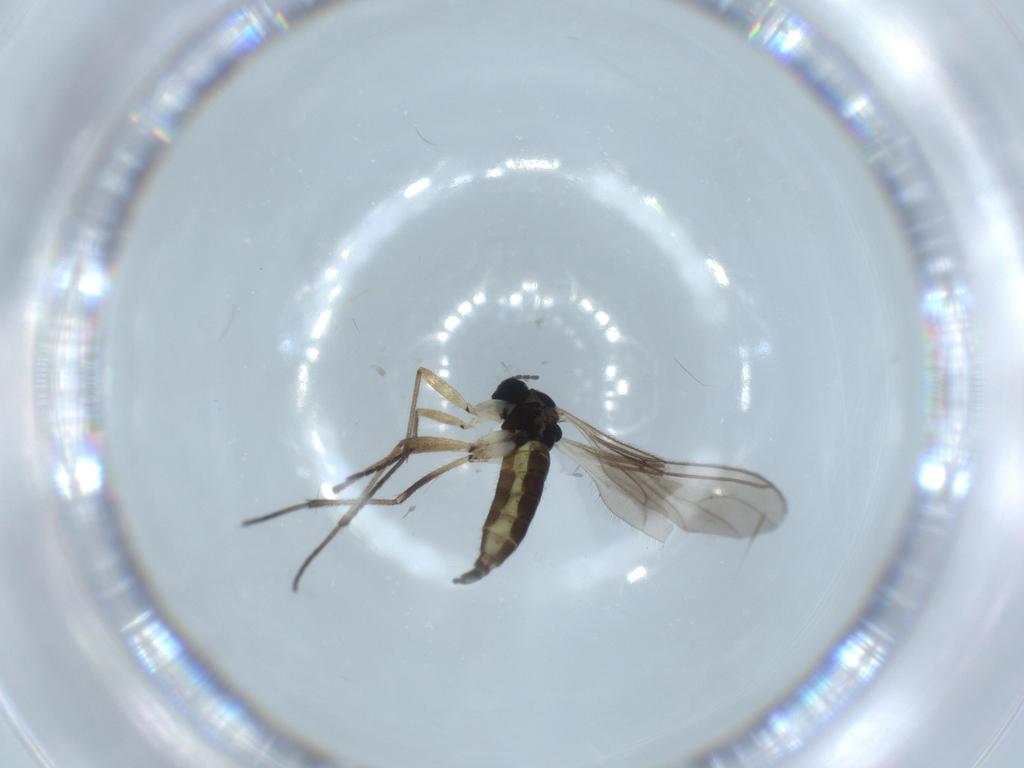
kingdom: Animalia
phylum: Arthropoda
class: Insecta
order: Diptera
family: Sciaridae
